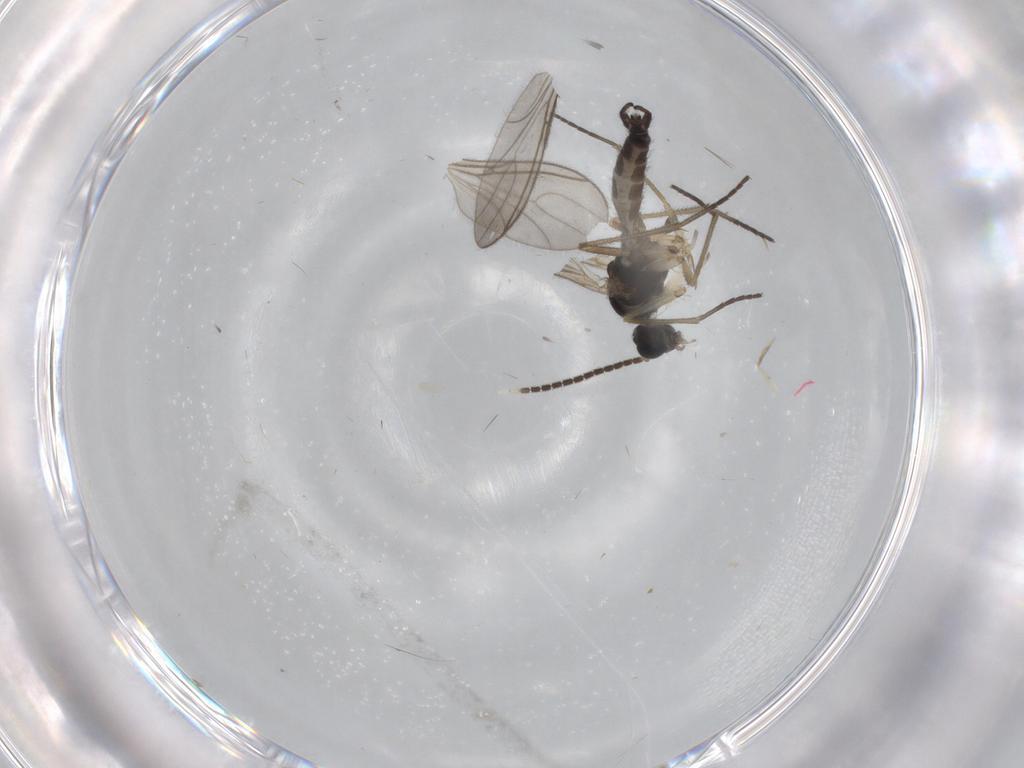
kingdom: Animalia
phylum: Arthropoda
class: Insecta
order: Diptera
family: Sciaridae
